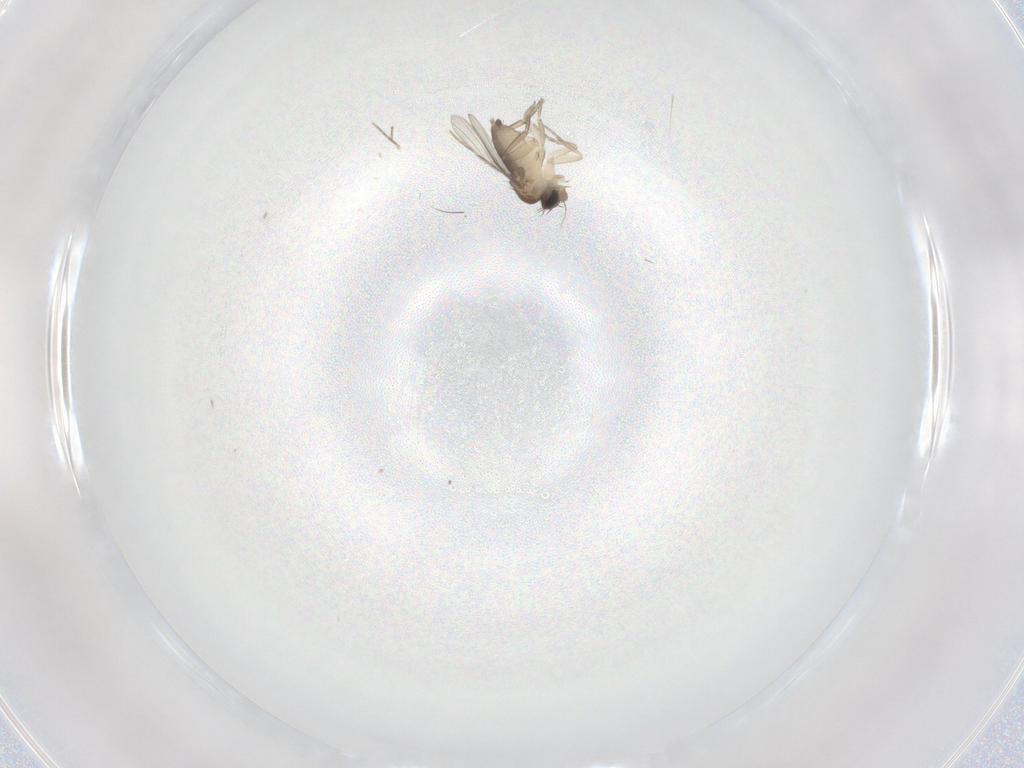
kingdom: Animalia
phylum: Arthropoda
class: Insecta
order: Diptera
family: Phoridae
